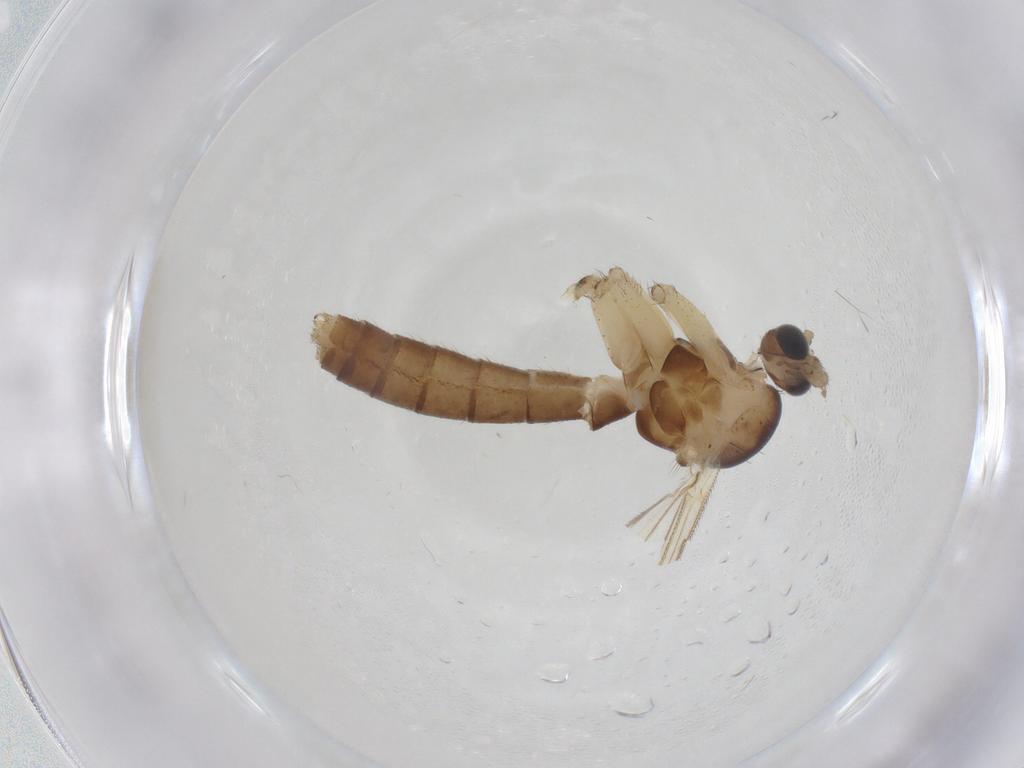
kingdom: Animalia
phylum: Arthropoda
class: Insecta
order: Diptera
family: Mycetophilidae
